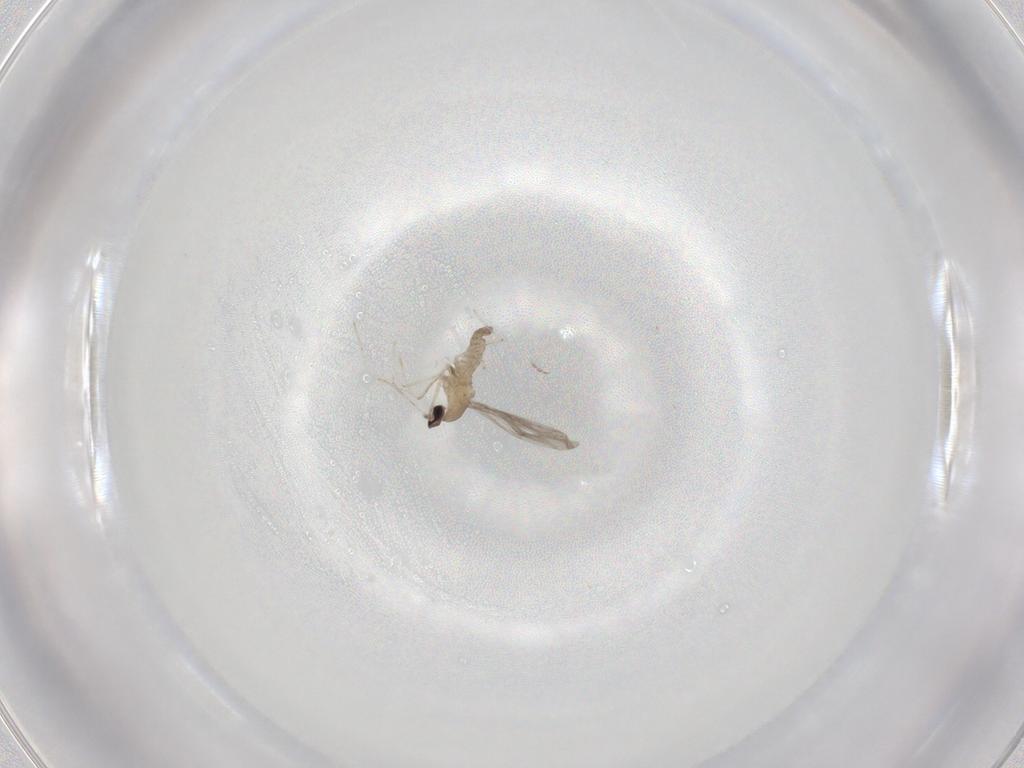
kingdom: Animalia
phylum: Arthropoda
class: Insecta
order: Diptera
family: Cecidomyiidae
